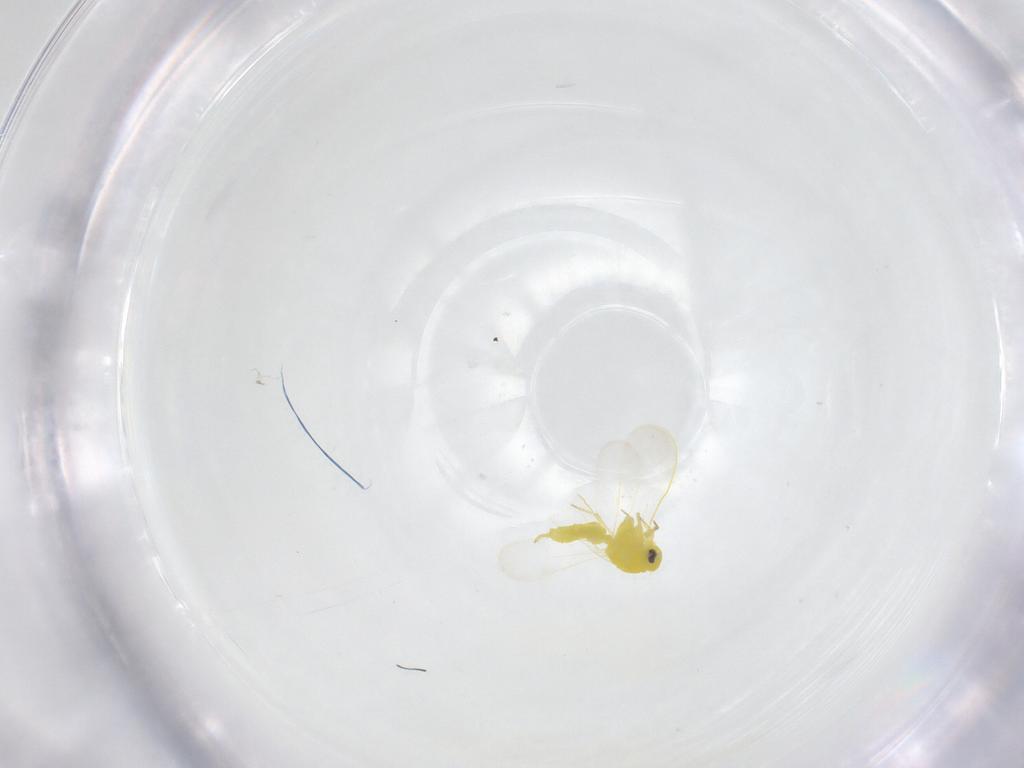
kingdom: Animalia
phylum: Arthropoda
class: Insecta
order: Hemiptera
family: Aleyrodidae
